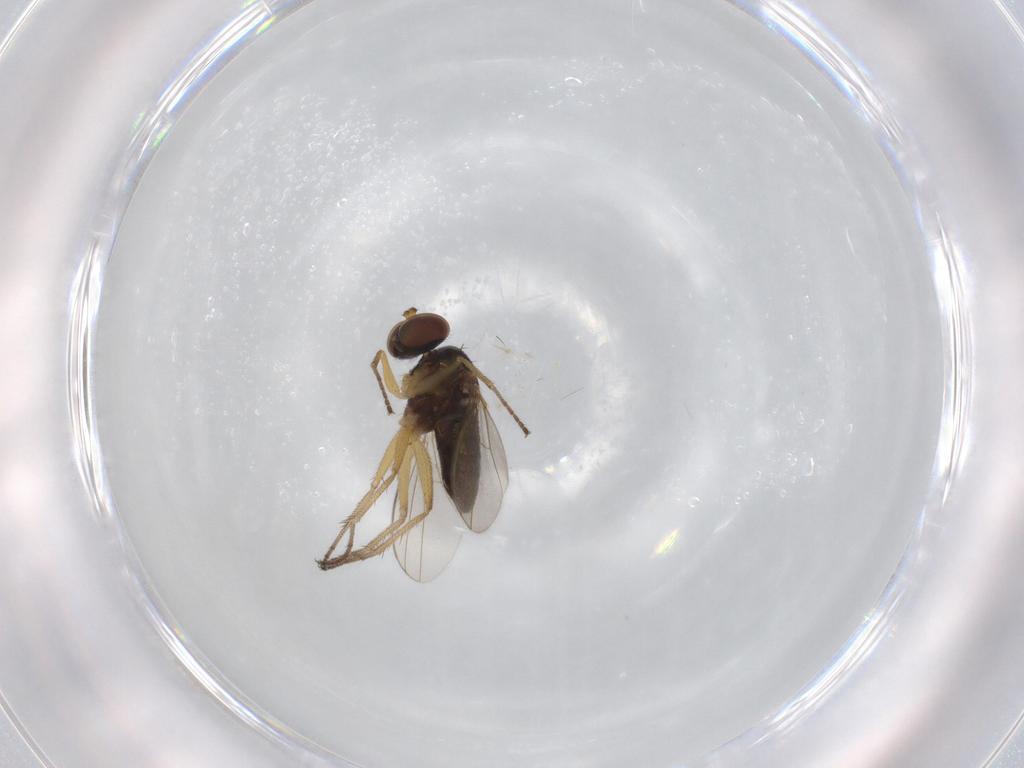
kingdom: Animalia
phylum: Arthropoda
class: Insecta
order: Diptera
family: Dolichopodidae
